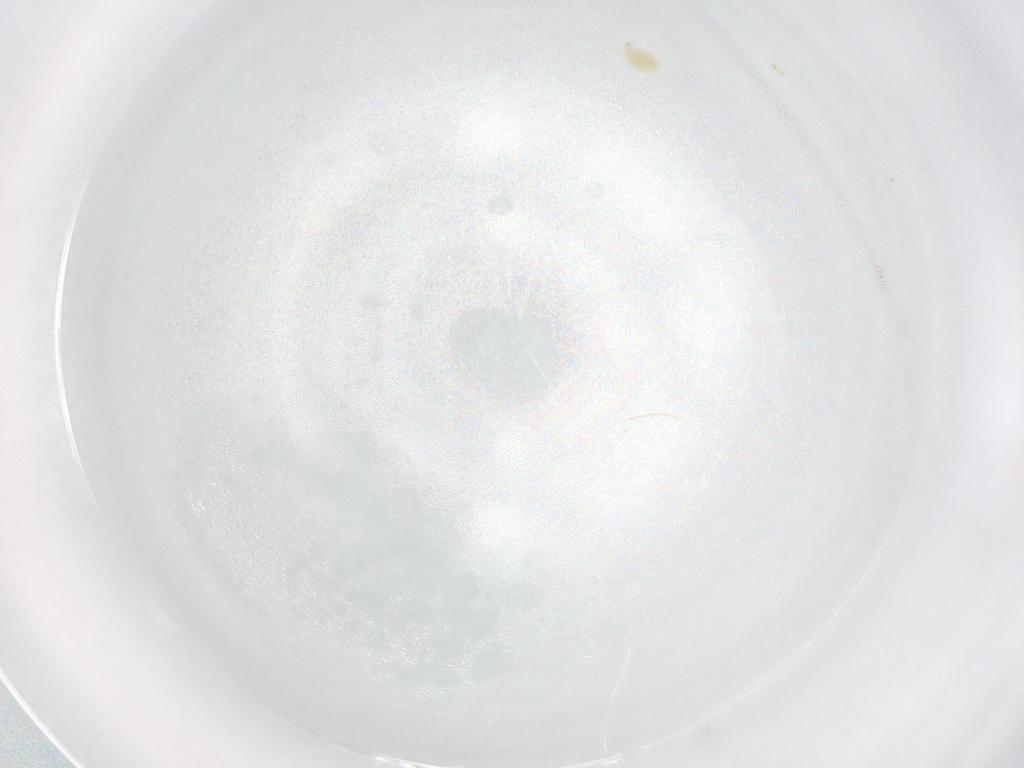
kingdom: Animalia
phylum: Arthropoda
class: Arachnida
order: Trombidiformes
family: Tetranychidae
